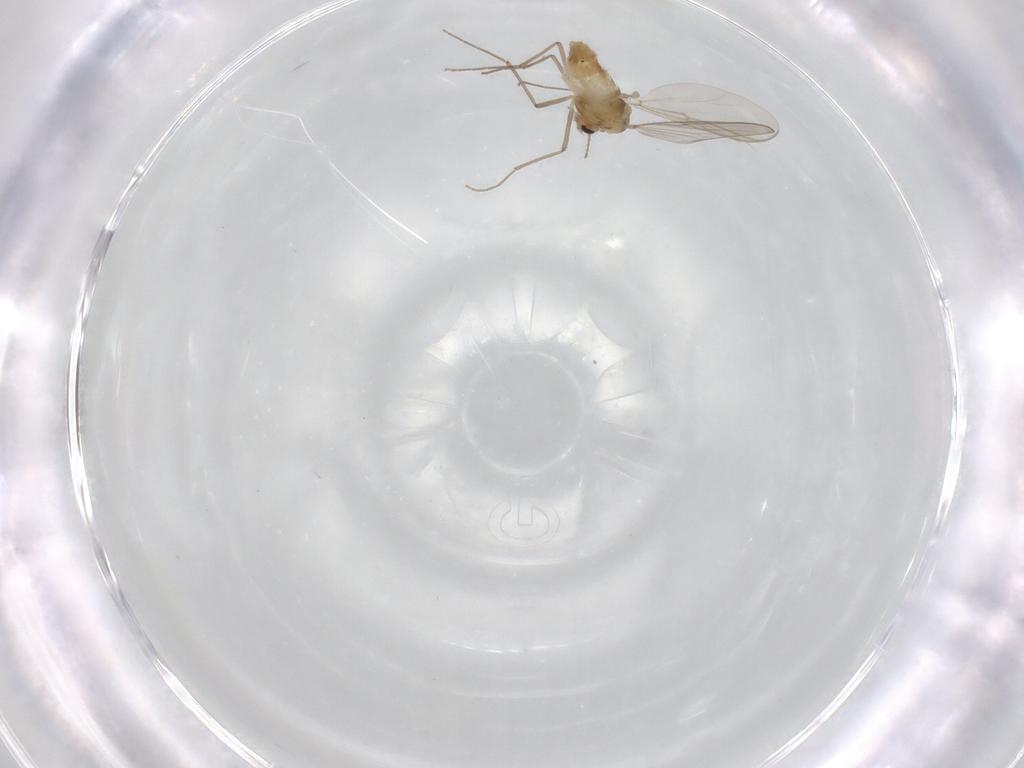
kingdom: Animalia
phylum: Arthropoda
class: Insecta
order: Diptera
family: Chironomidae
